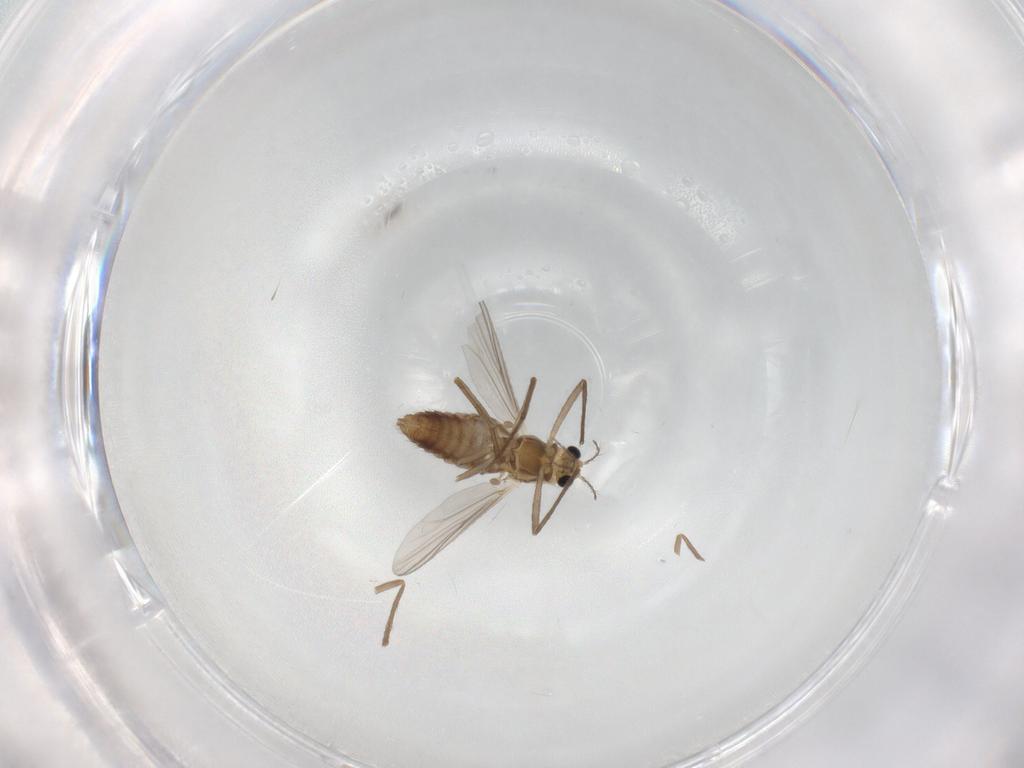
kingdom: Animalia
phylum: Arthropoda
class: Insecta
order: Diptera
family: Chironomidae
